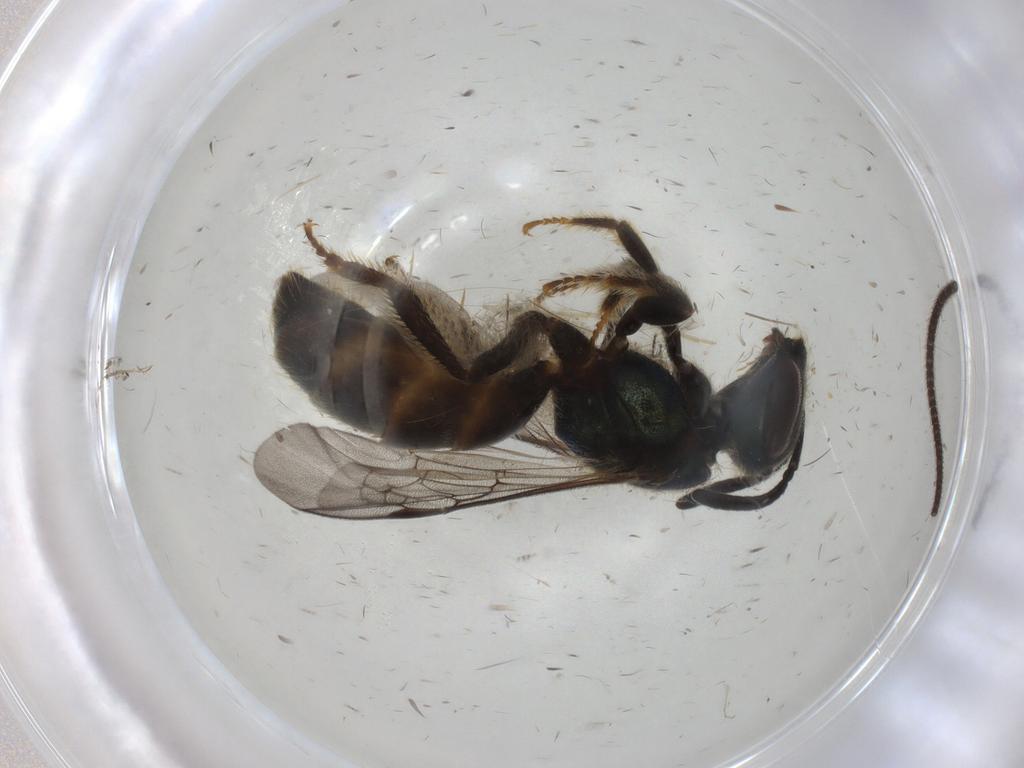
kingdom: Animalia
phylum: Arthropoda
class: Insecta
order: Hymenoptera
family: Halictidae
